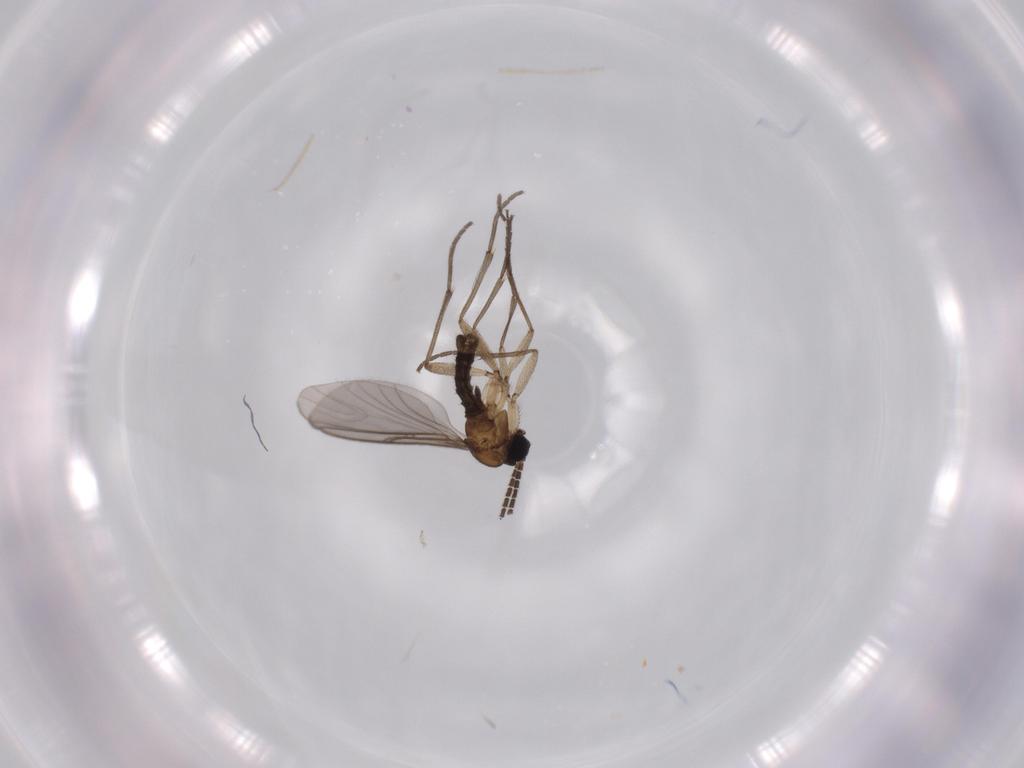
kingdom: Animalia
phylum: Arthropoda
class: Insecta
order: Diptera
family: Sciaridae
